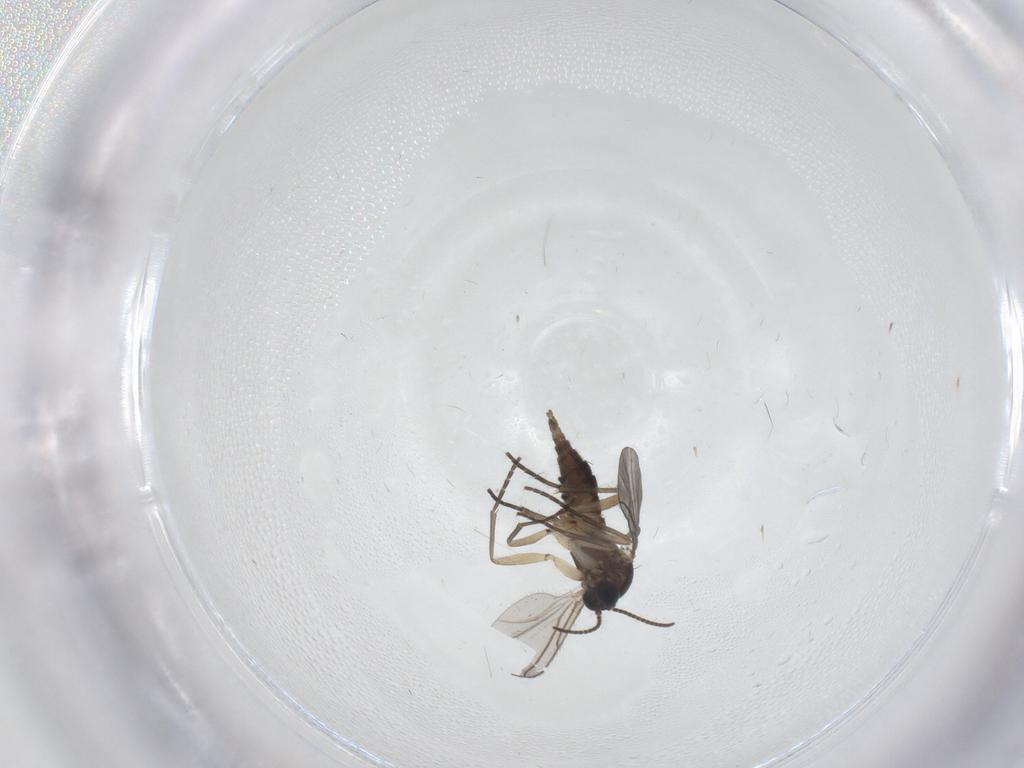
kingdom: Animalia
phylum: Arthropoda
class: Insecta
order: Diptera
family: Sciaridae
